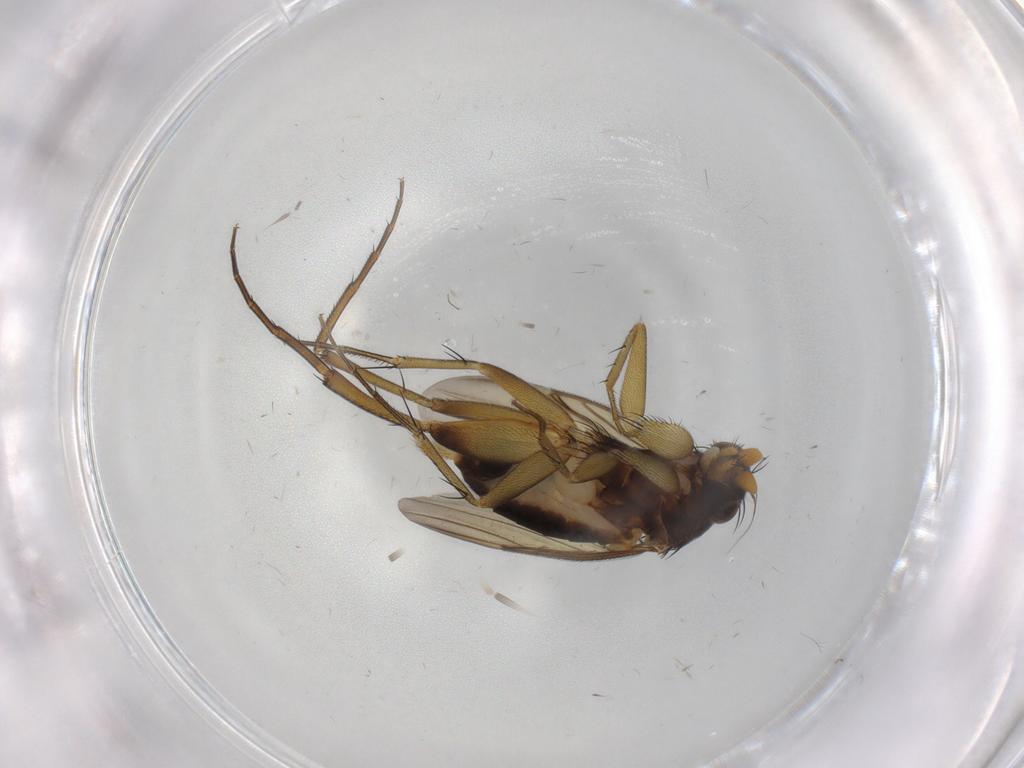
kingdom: Animalia
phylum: Arthropoda
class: Insecta
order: Diptera
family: Phoridae
